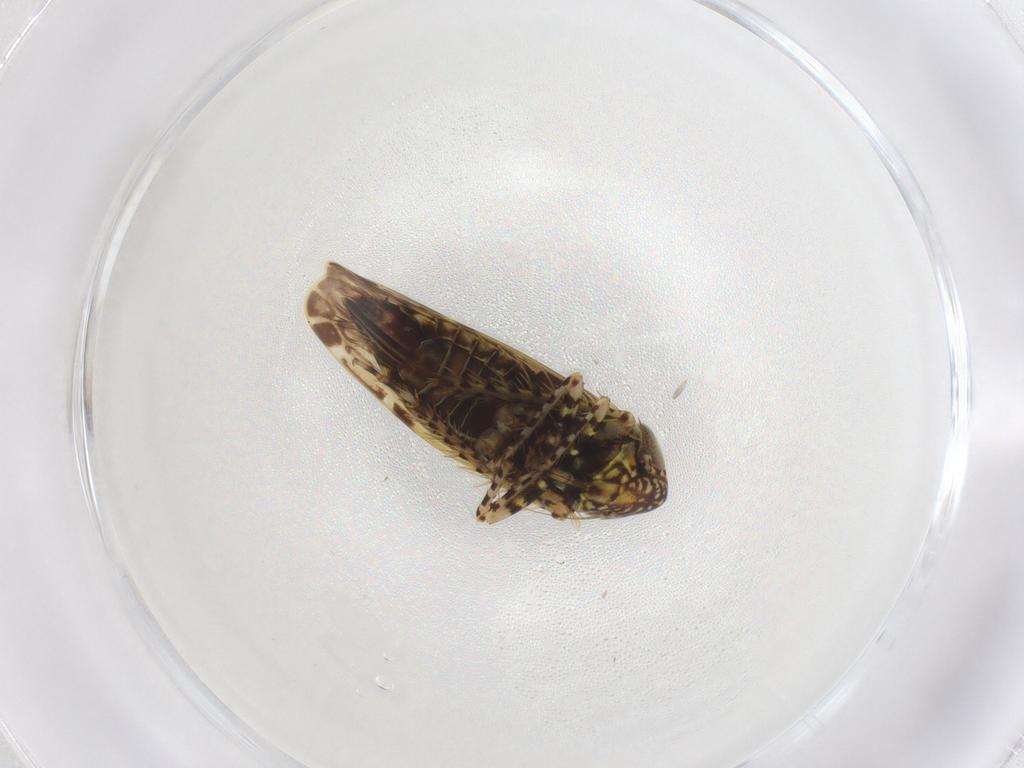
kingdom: Animalia
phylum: Arthropoda
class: Insecta
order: Hemiptera
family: Cicadellidae
